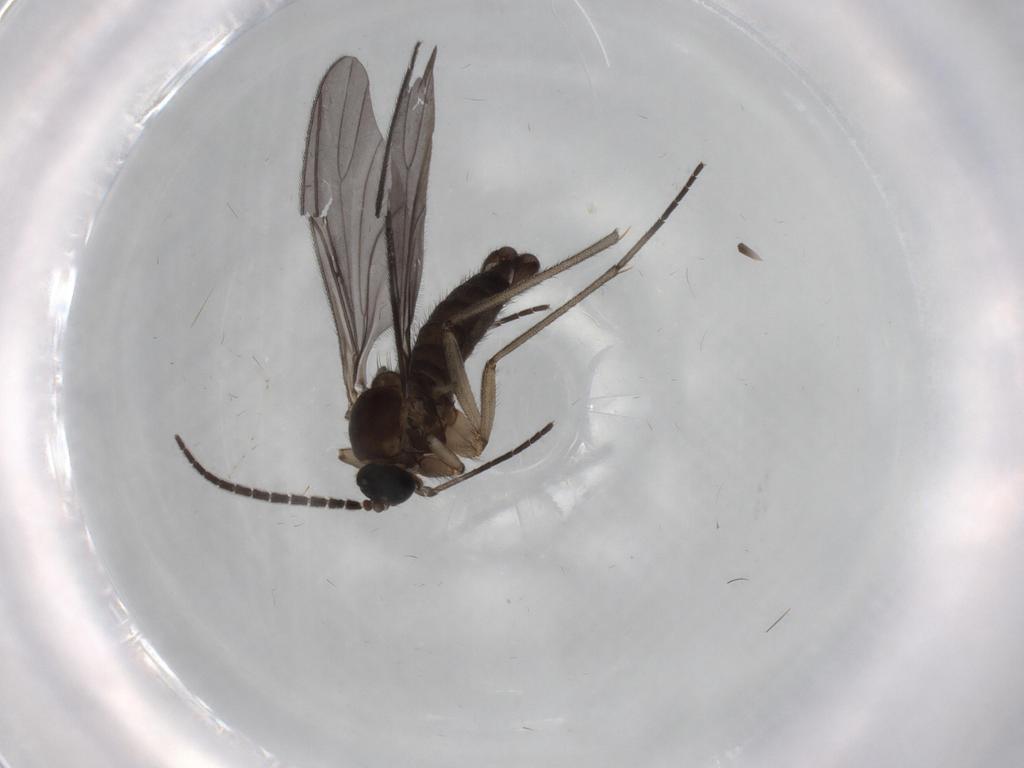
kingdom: Animalia
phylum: Arthropoda
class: Insecta
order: Diptera
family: Sciaridae
